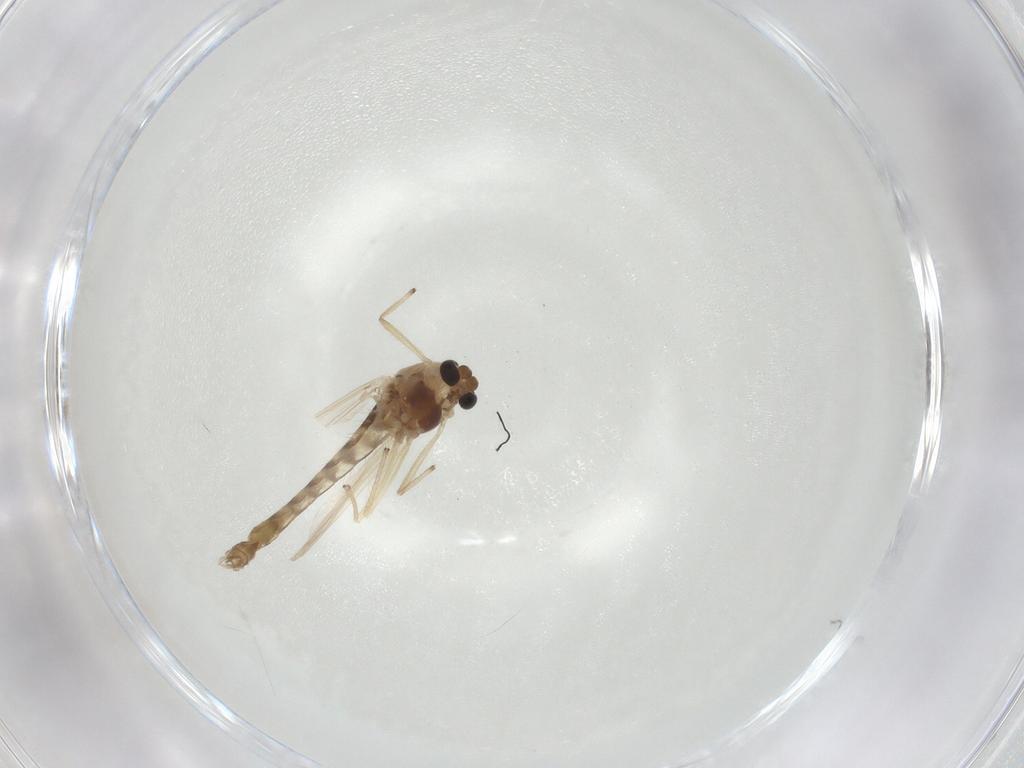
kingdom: Animalia
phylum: Arthropoda
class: Insecta
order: Diptera
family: Chironomidae
